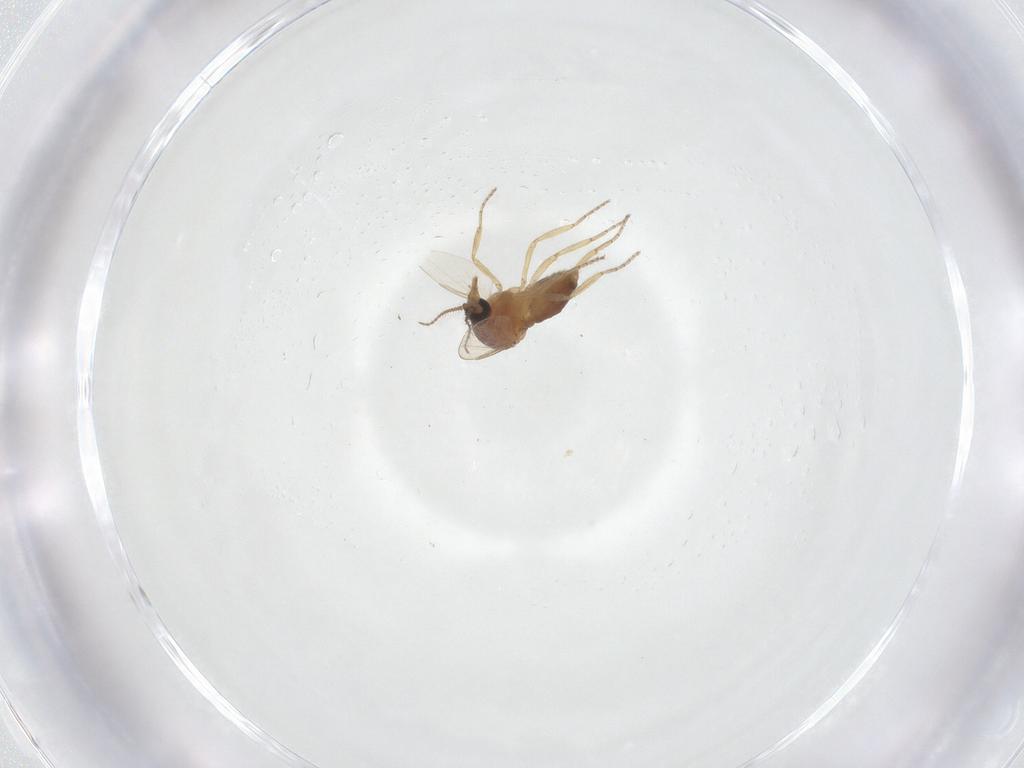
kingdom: Animalia
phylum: Arthropoda
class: Insecta
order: Diptera
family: Ceratopogonidae
